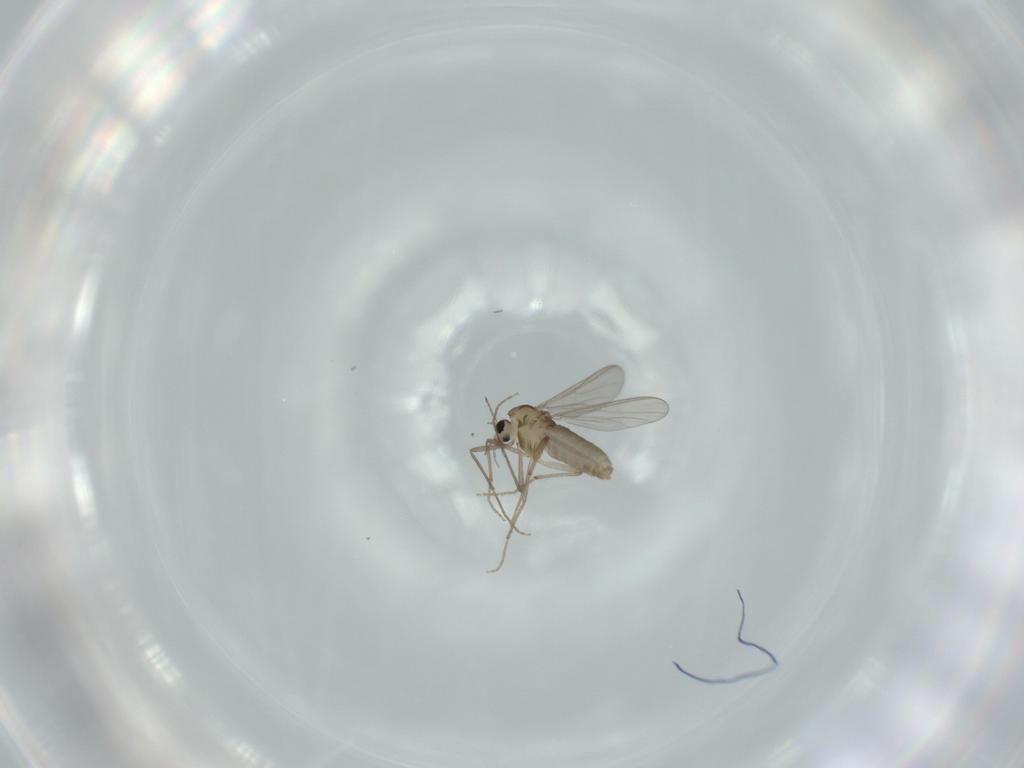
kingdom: Animalia
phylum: Arthropoda
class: Insecta
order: Diptera
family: Chironomidae
